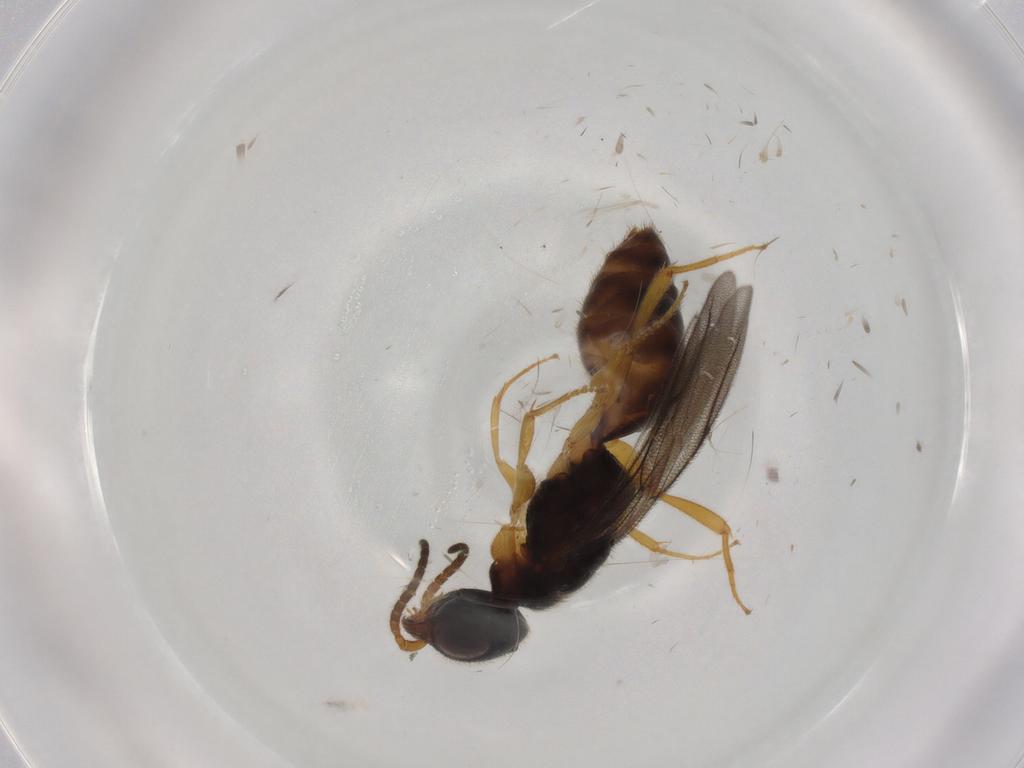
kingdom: Animalia
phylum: Arthropoda
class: Insecta
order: Hymenoptera
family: Bethylidae
